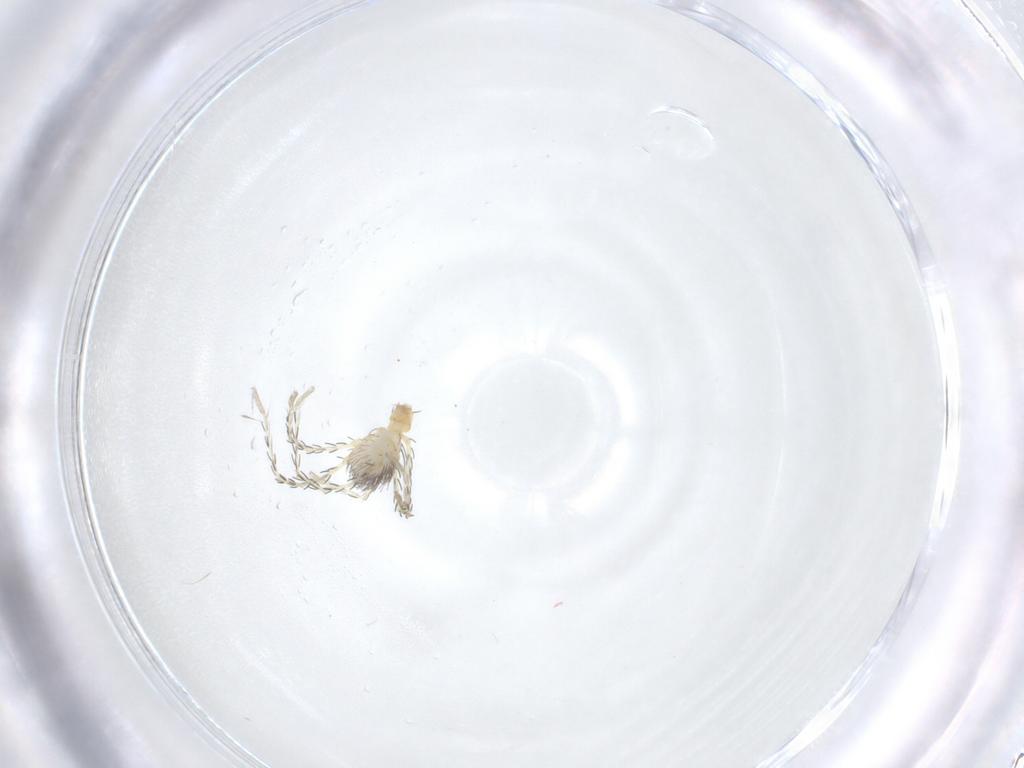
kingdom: Animalia
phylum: Arthropoda
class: Arachnida
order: Trombidiformes
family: Erythraeidae
